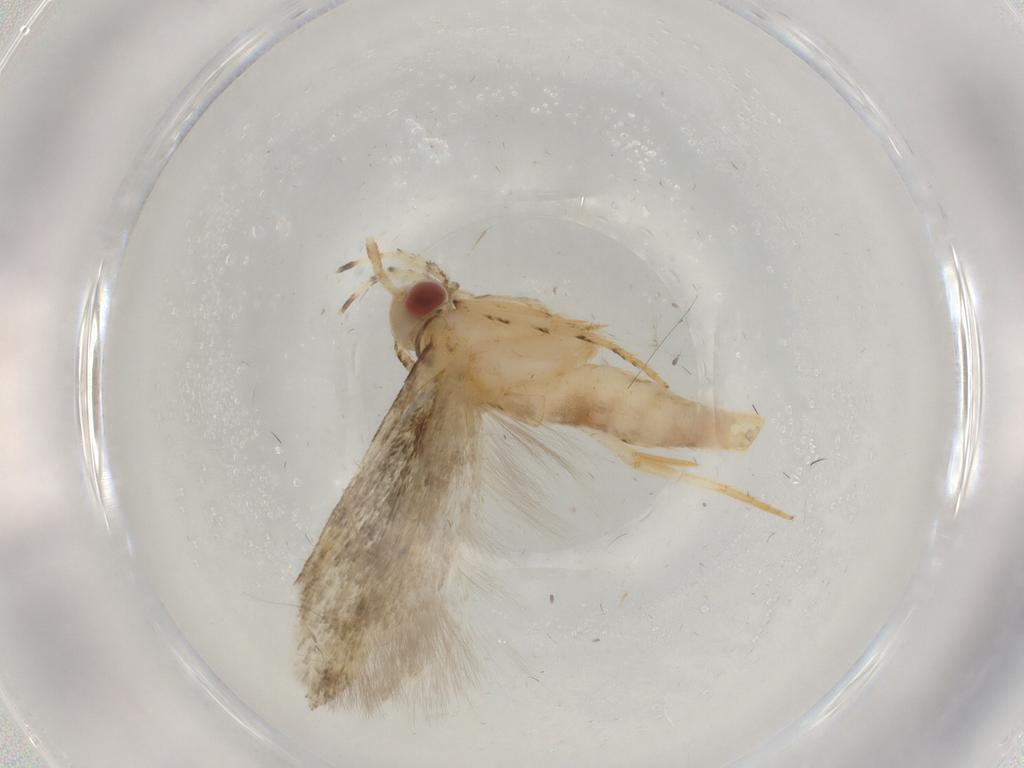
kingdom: Animalia
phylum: Arthropoda
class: Insecta
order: Lepidoptera
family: Gelechiidae
